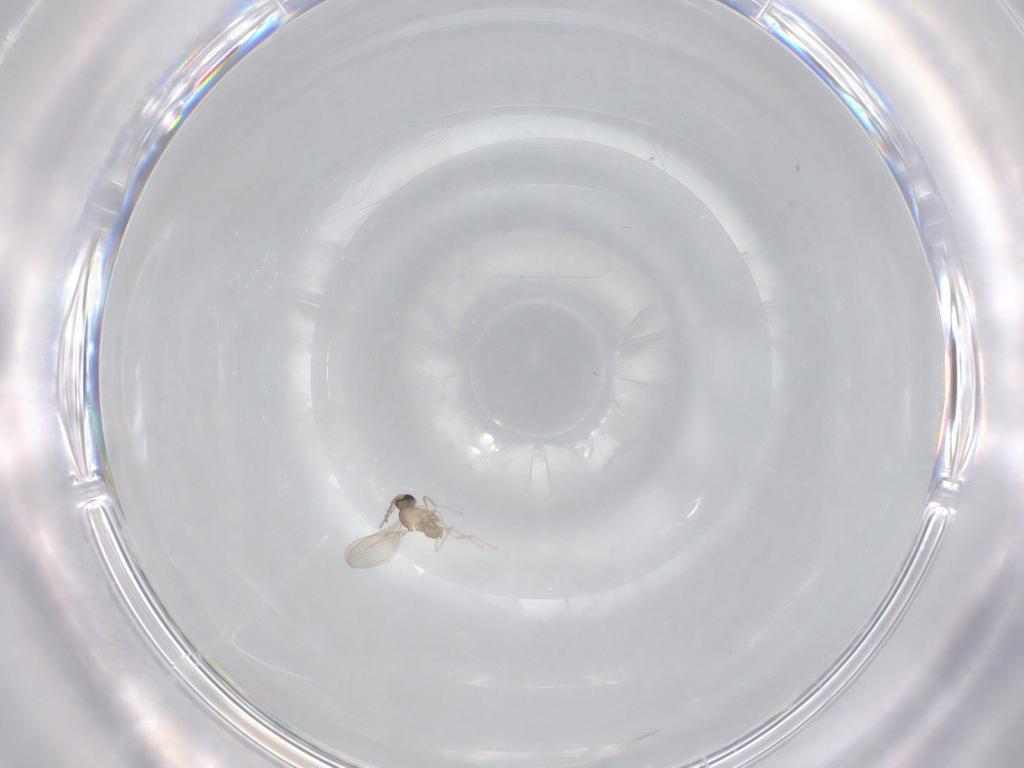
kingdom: Animalia
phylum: Arthropoda
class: Insecta
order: Diptera
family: Cecidomyiidae
